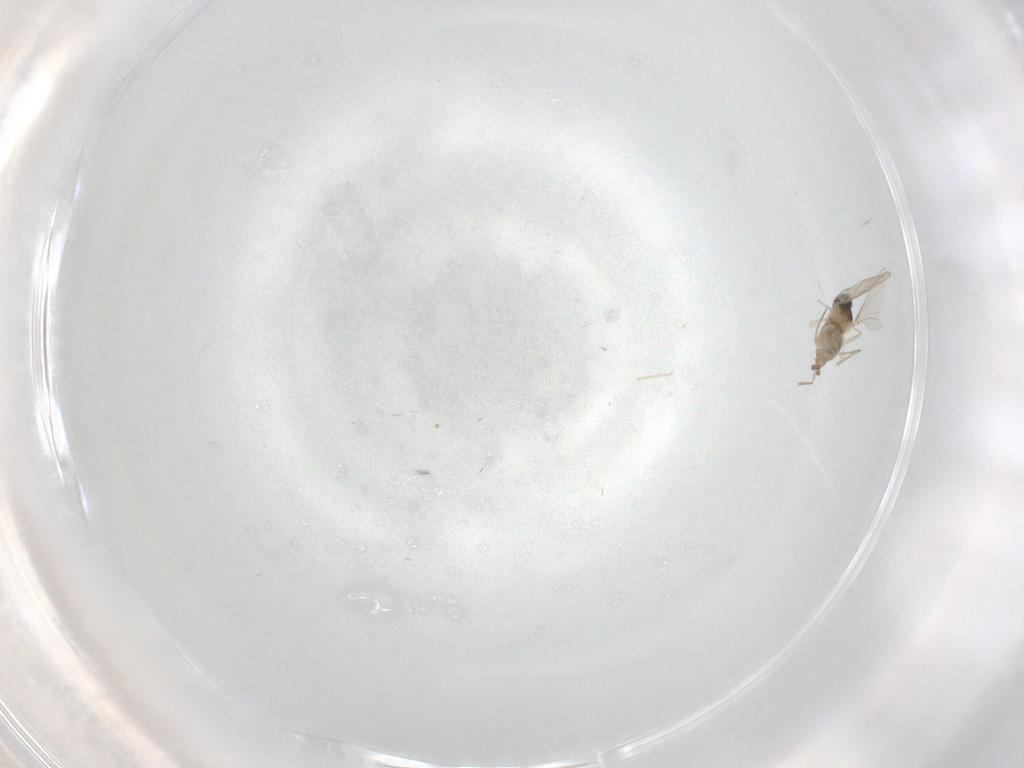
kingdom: Animalia
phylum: Arthropoda
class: Insecta
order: Diptera
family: Cecidomyiidae
